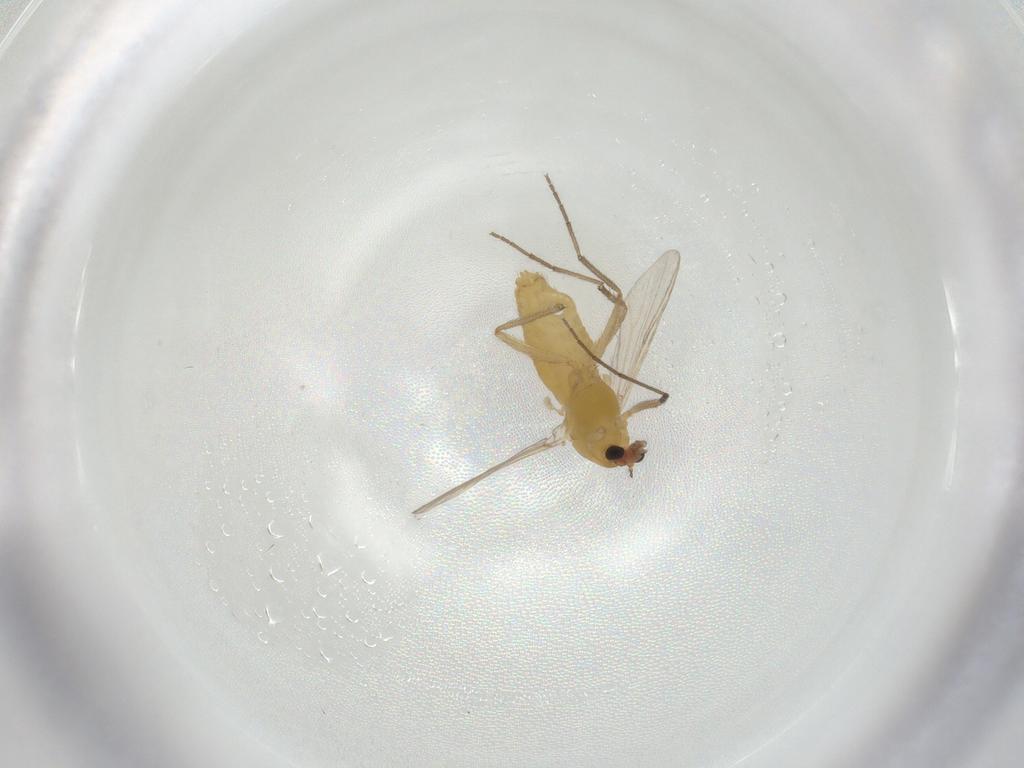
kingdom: Animalia
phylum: Arthropoda
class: Insecta
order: Diptera
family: Chironomidae
